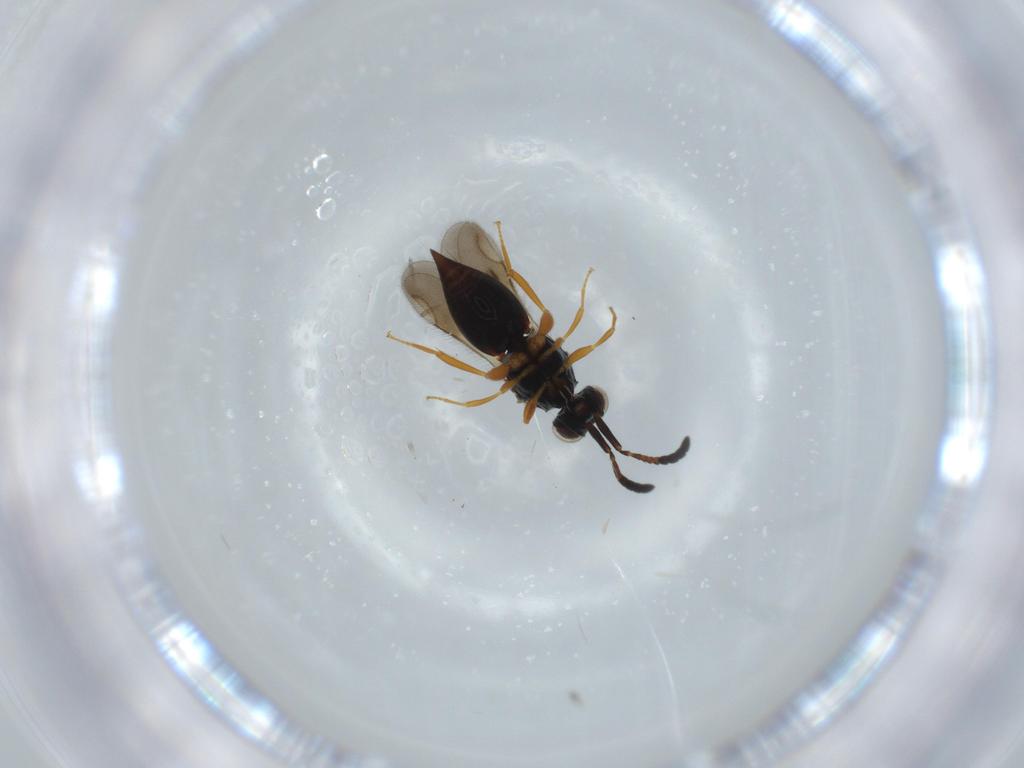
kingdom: Animalia
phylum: Arthropoda
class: Insecta
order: Hymenoptera
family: Ceraphronidae
